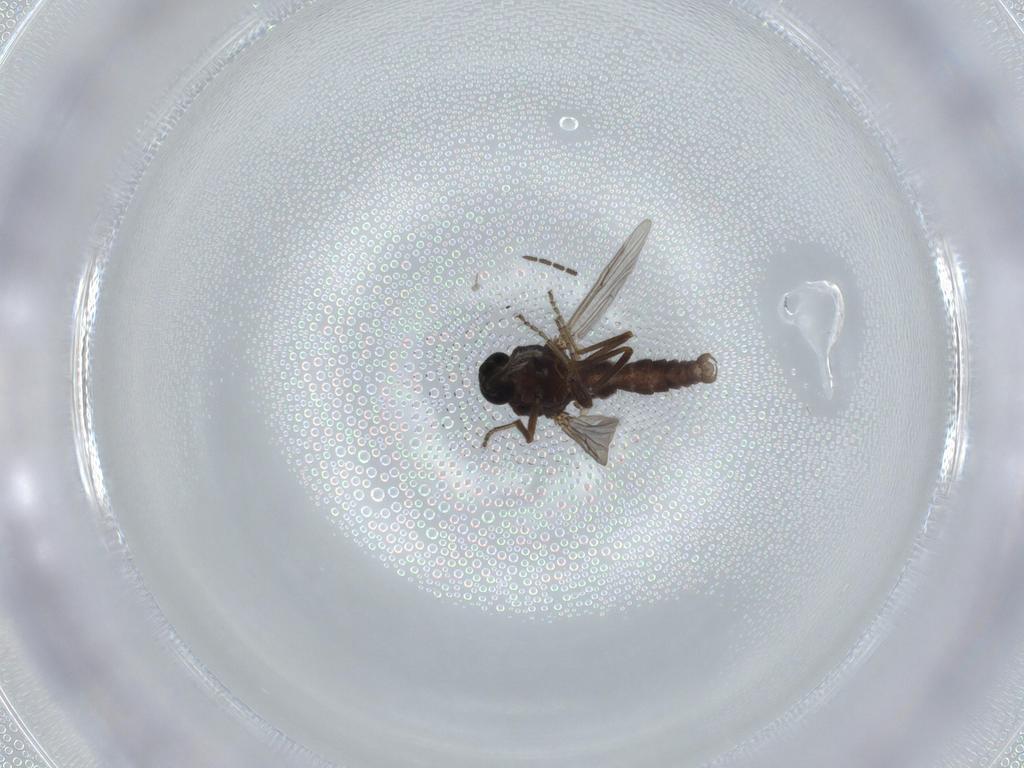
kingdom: Animalia
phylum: Arthropoda
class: Insecta
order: Diptera
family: Ceratopogonidae
